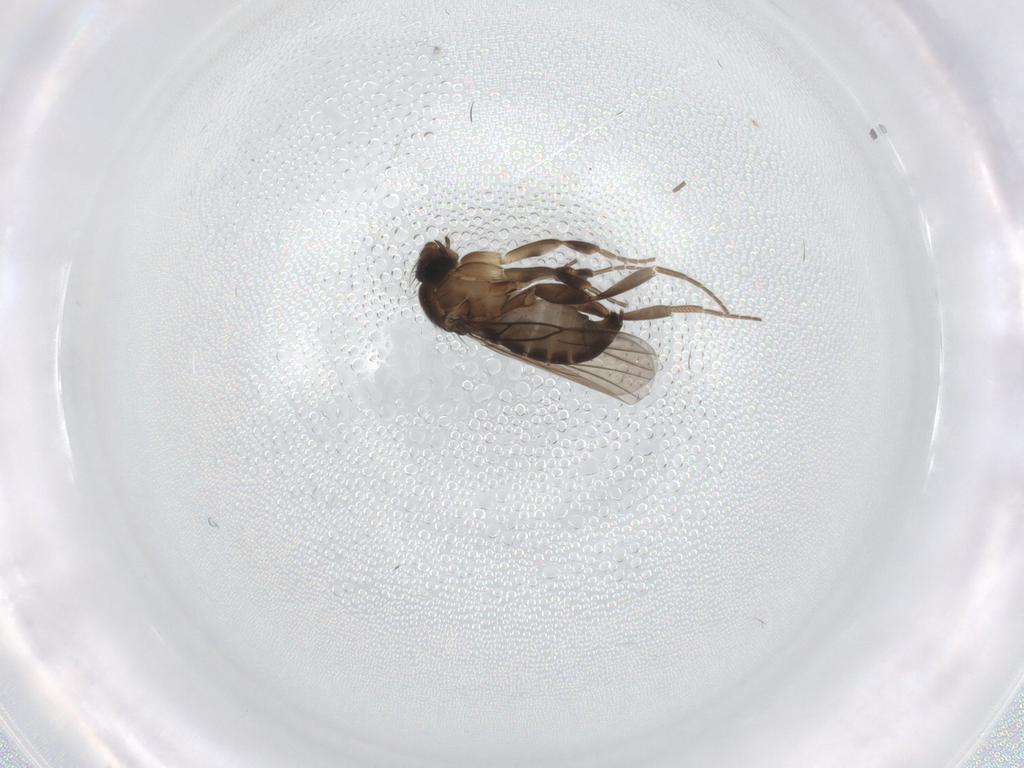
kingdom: Animalia
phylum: Arthropoda
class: Insecta
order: Diptera
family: Phoridae
